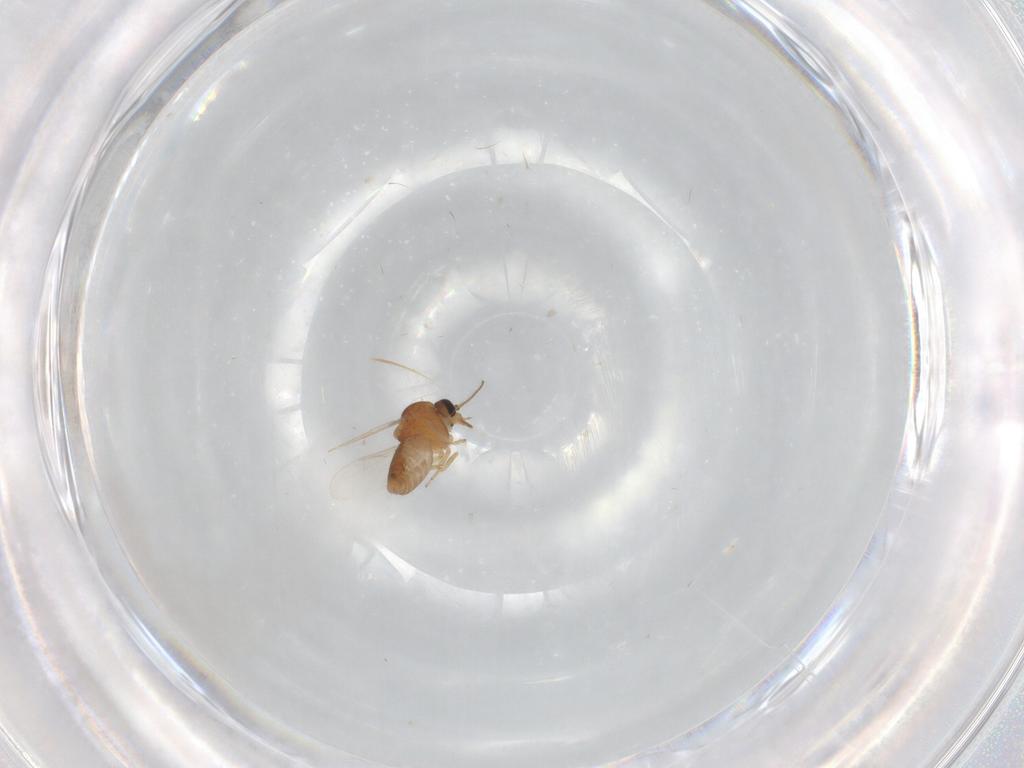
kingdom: Animalia
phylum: Arthropoda
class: Insecta
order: Diptera
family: Ceratopogonidae
